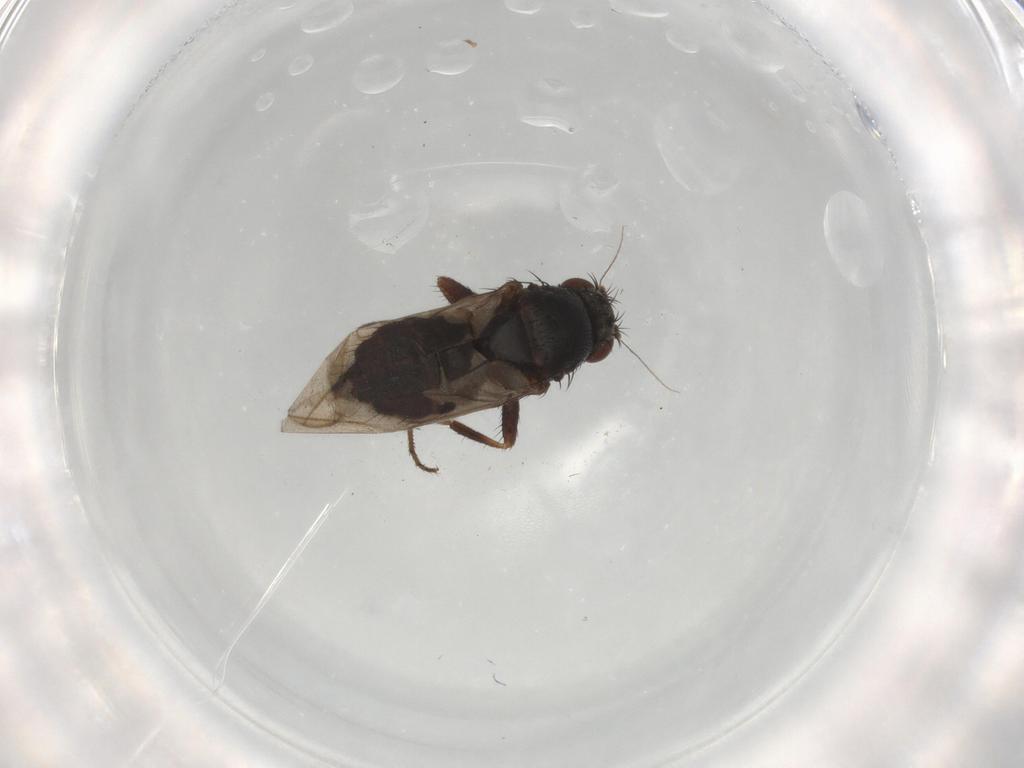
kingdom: Animalia
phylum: Arthropoda
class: Insecta
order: Diptera
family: Sphaeroceridae
